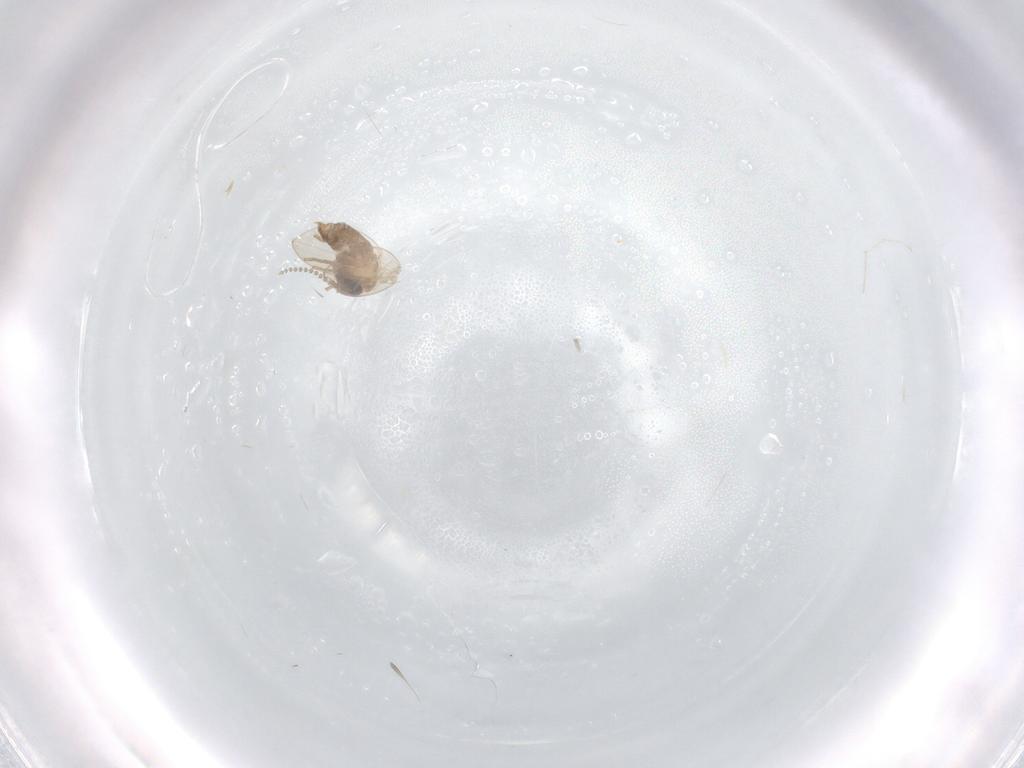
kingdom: Animalia
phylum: Arthropoda
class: Insecta
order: Diptera
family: Cecidomyiidae
